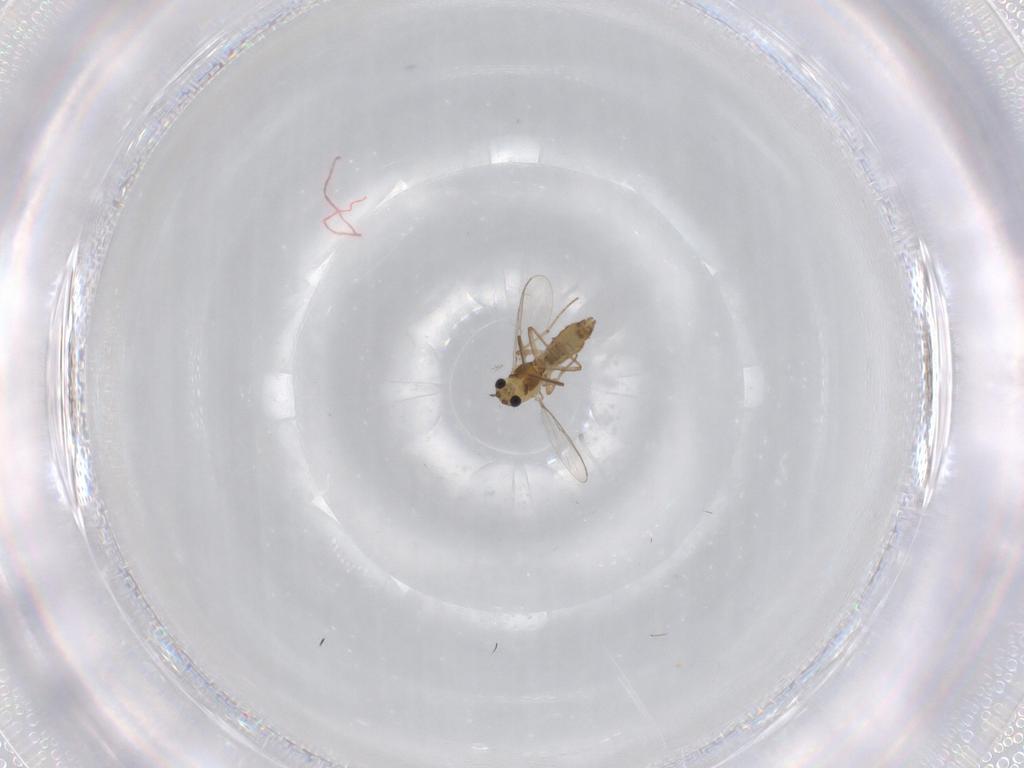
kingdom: Animalia
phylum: Arthropoda
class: Insecta
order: Diptera
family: Chironomidae
